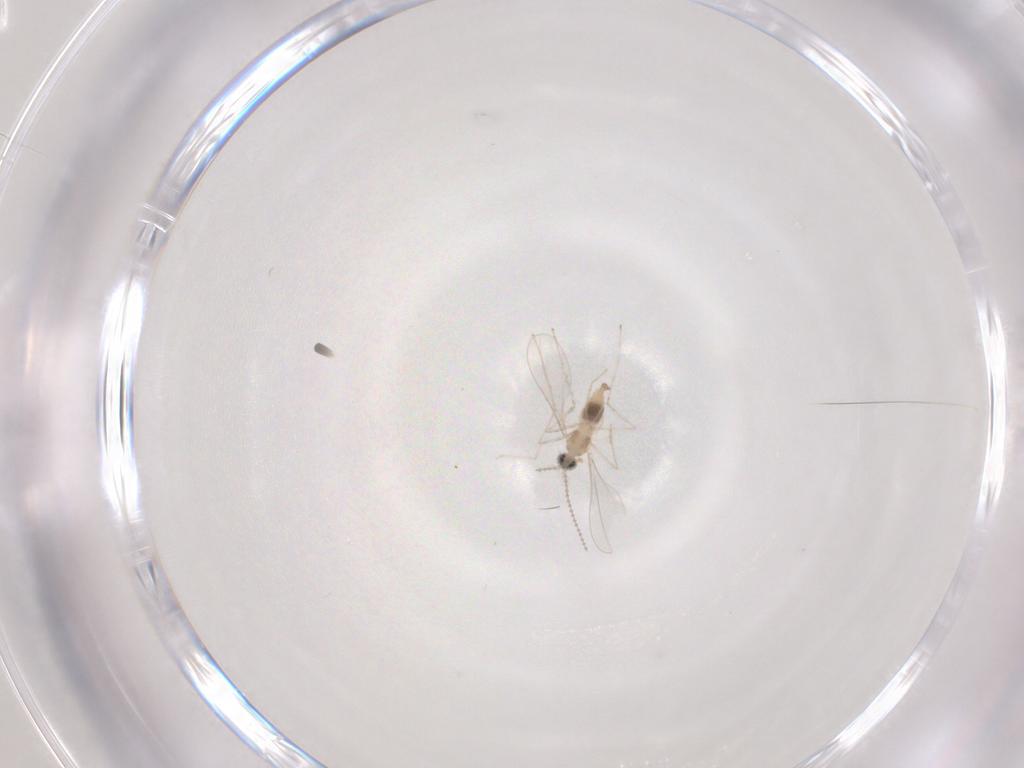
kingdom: Animalia
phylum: Arthropoda
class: Insecta
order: Diptera
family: Cecidomyiidae
